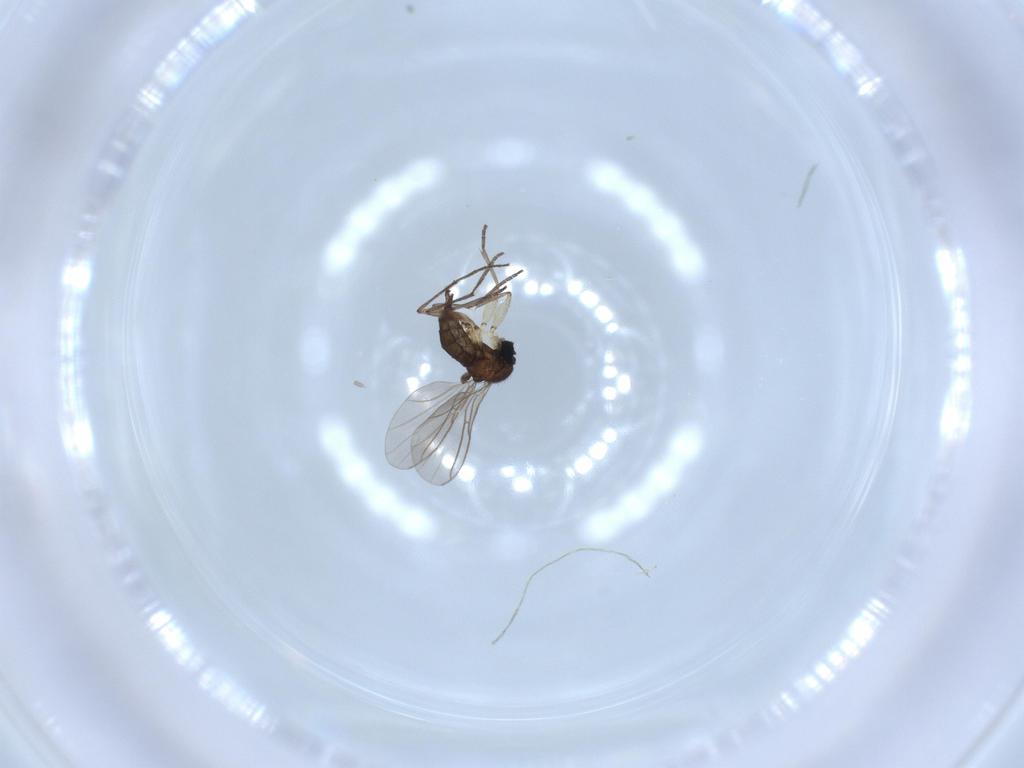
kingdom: Animalia
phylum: Arthropoda
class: Insecta
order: Diptera
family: Sciaridae
